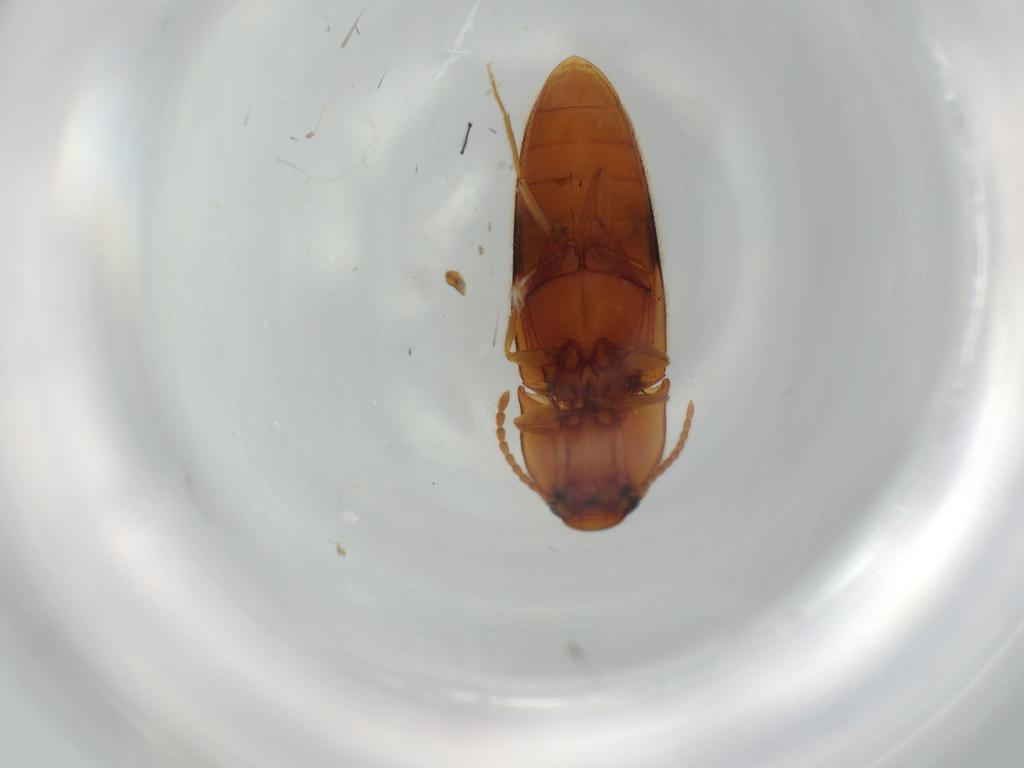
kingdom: Animalia
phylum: Arthropoda
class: Insecta
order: Coleoptera
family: Elateridae
